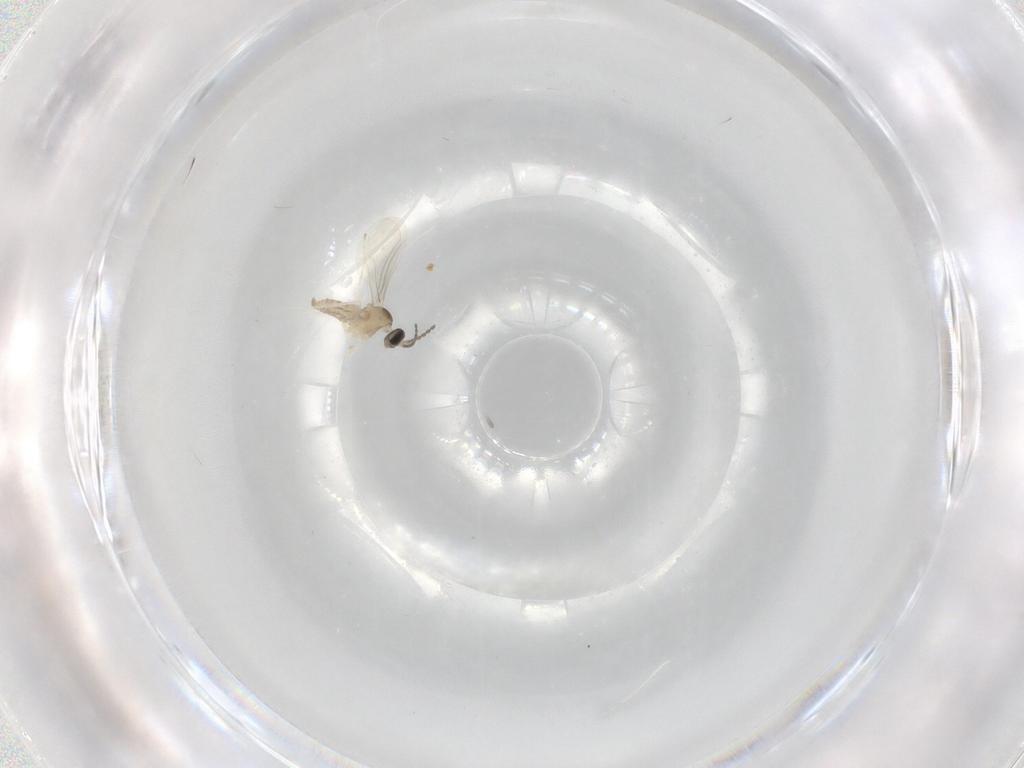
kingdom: Animalia
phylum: Arthropoda
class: Insecta
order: Diptera
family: Cecidomyiidae
